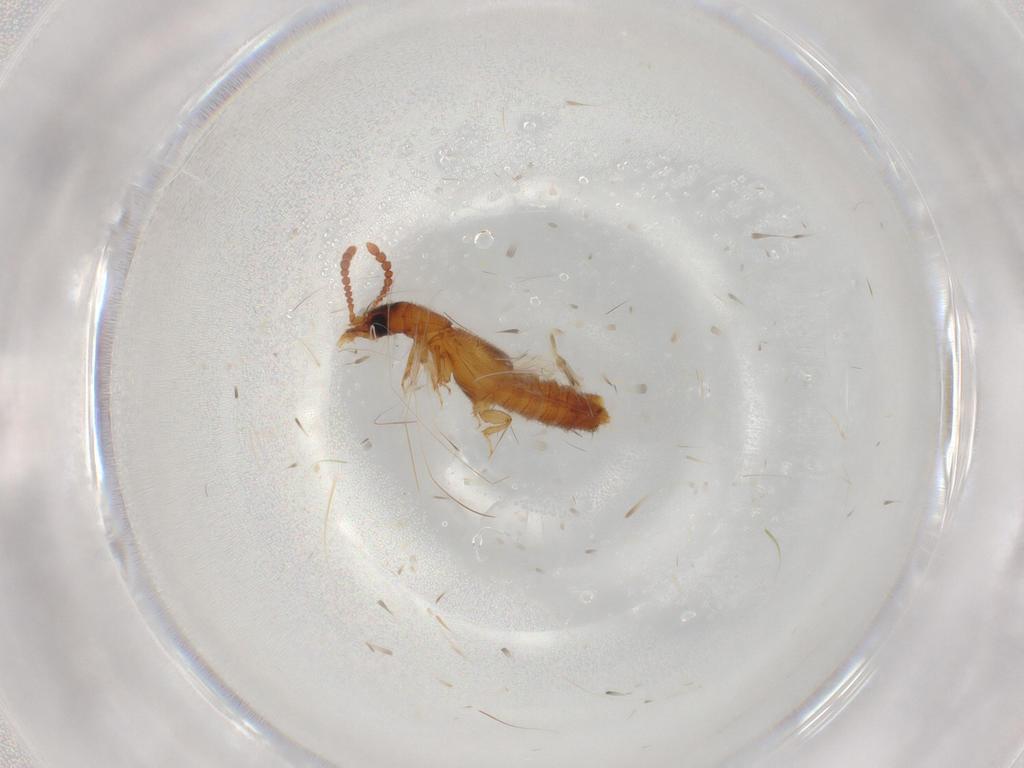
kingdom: Animalia
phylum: Arthropoda
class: Insecta
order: Coleoptera
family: Staphylinidae
